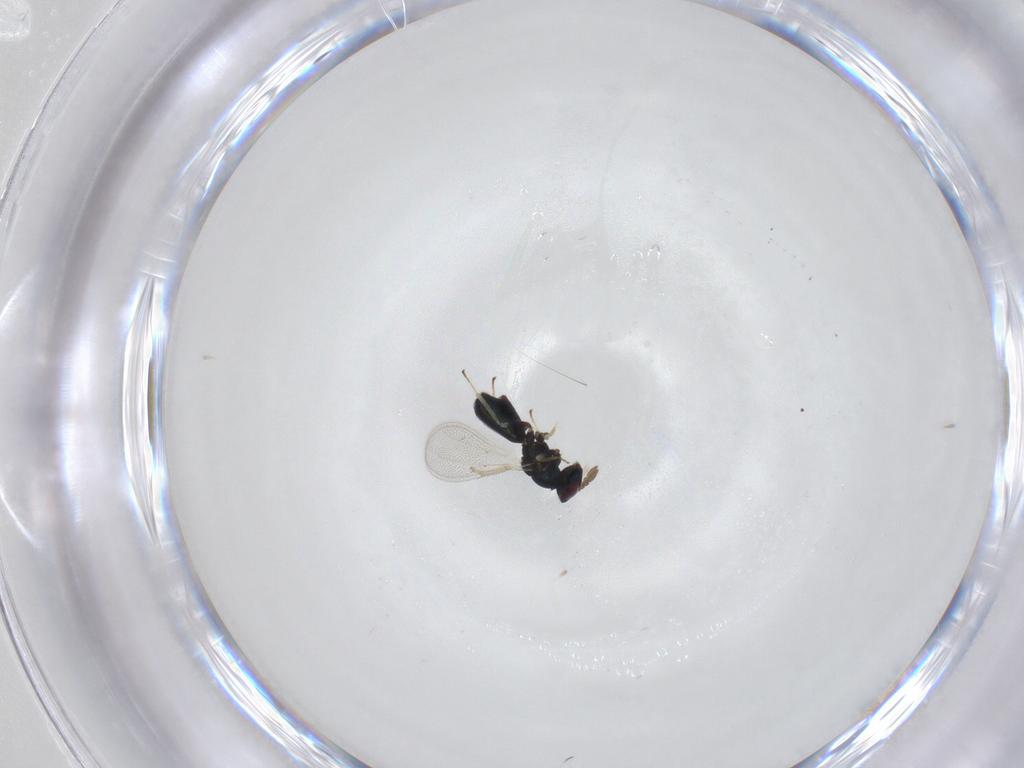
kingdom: Animalia
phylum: Arthropoda
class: Insecta
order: Hymenoptera
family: Eulophidae
